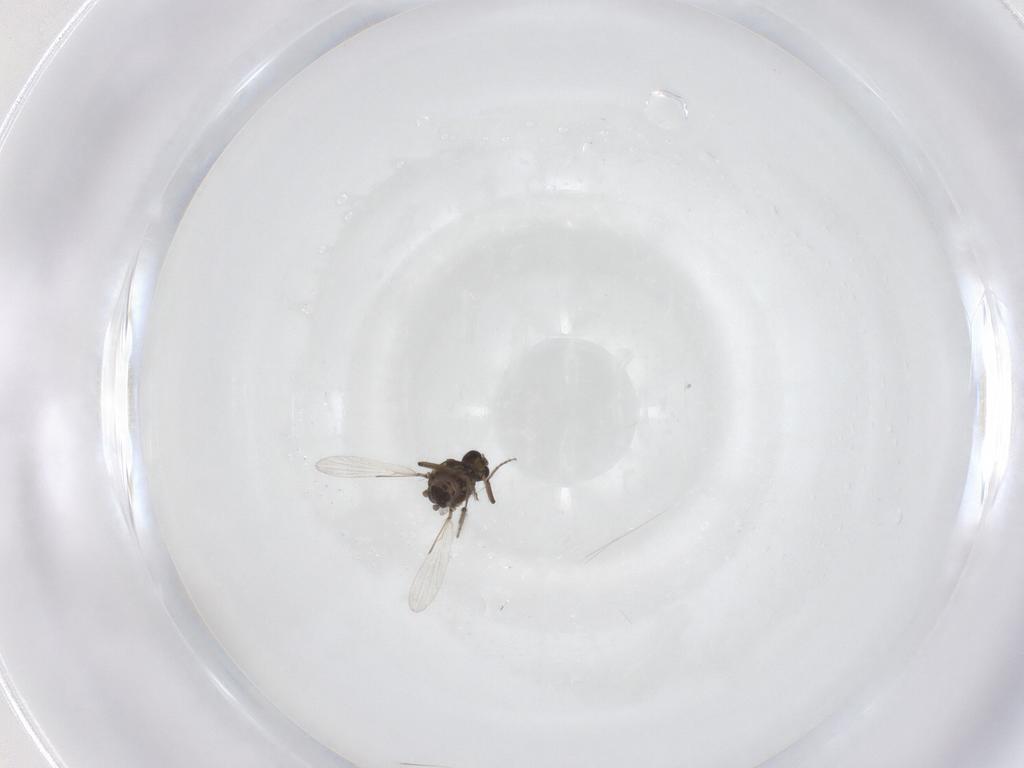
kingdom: Animalia
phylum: Arthropoda
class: Insecta
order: Diptera
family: Ceratopogonidae
